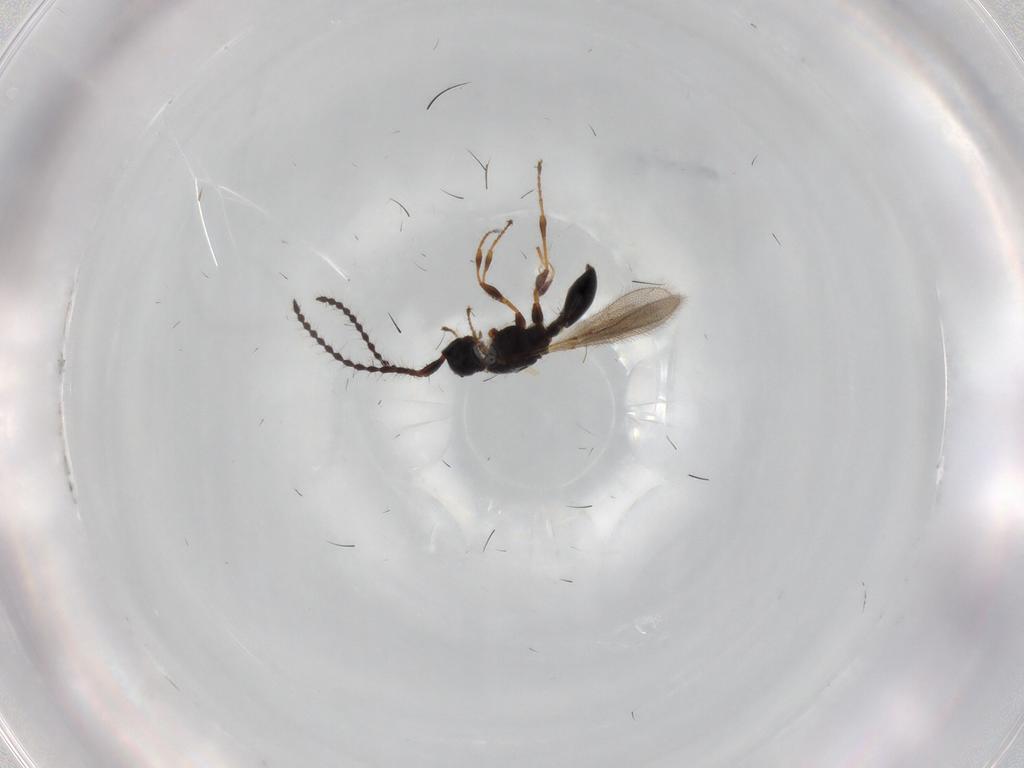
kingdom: Animalia
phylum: Arthropoda
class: Insecta
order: Hymenoptera
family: Diapriidae
